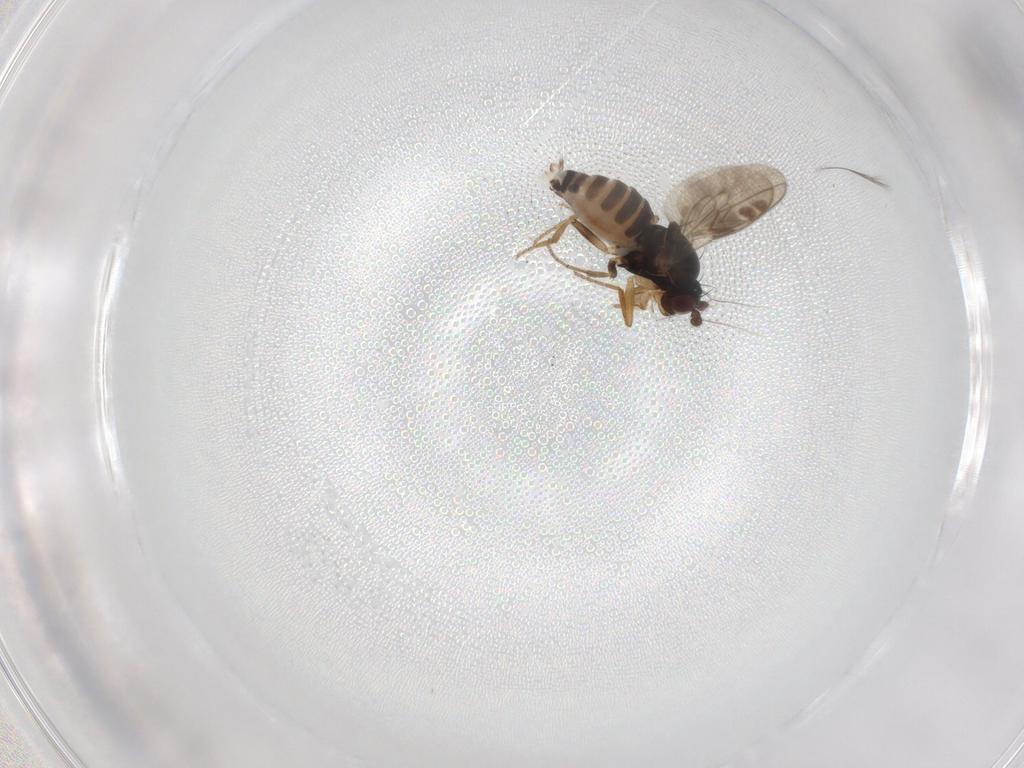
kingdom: Animalia
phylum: Arthropoda
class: Insecta
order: Diptera
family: Sphaeroceridae
